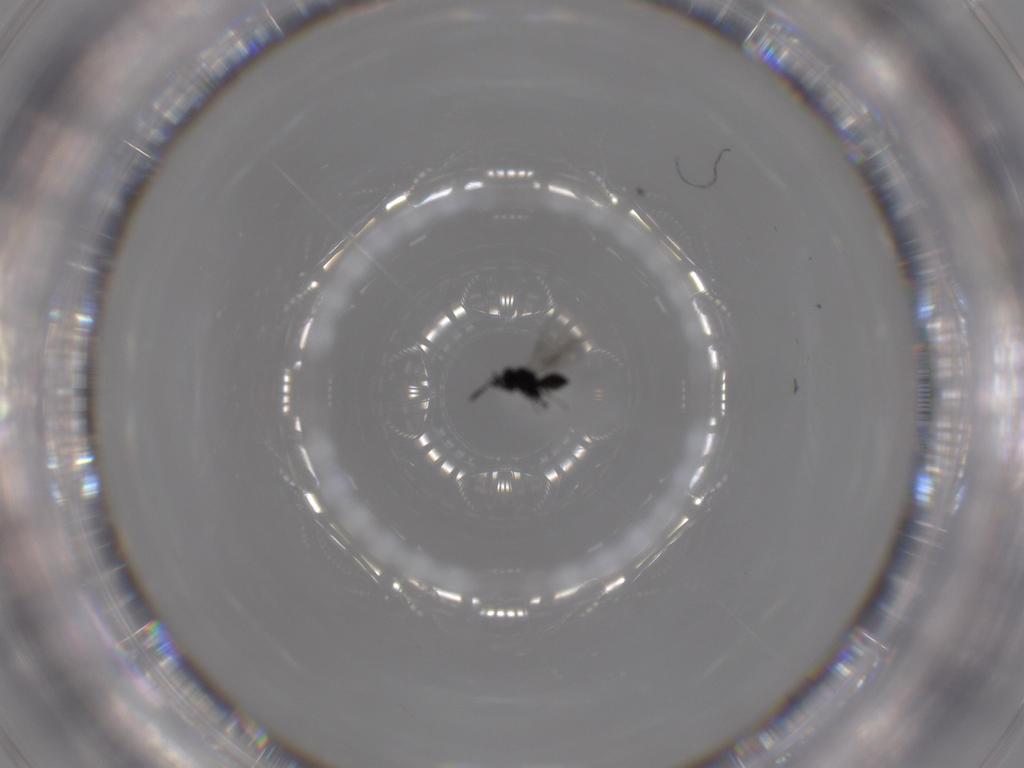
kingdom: Animalia
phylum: Arthropoda
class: Insecta
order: Hymenoptera
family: Scelionidae
